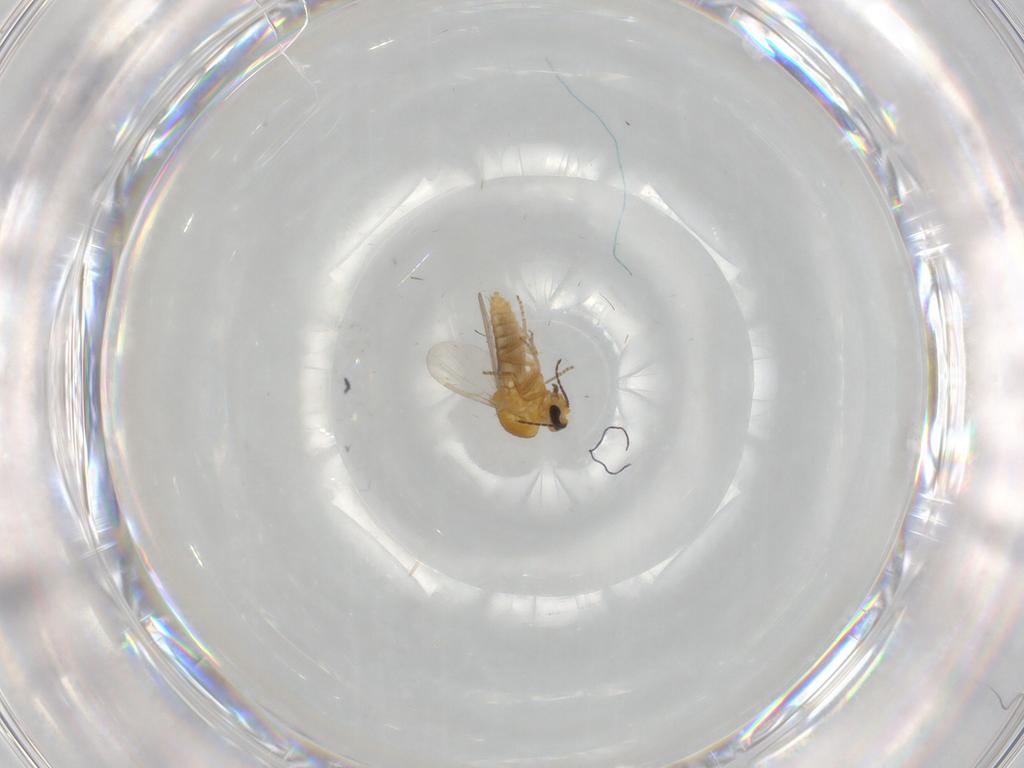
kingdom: Animalia
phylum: Arthropoda
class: Insecta
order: Diptera
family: Ceratopogonidae
